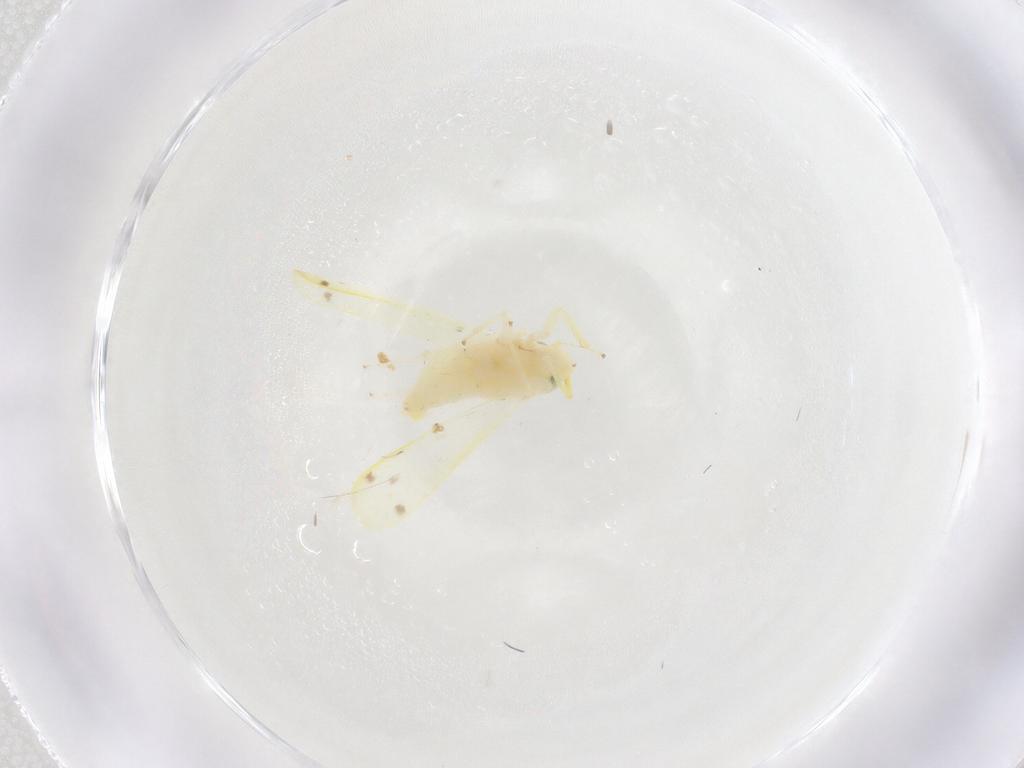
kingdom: Animalia
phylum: Arthropoda
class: Insecta
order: Hemiptera
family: Cicadellidae
